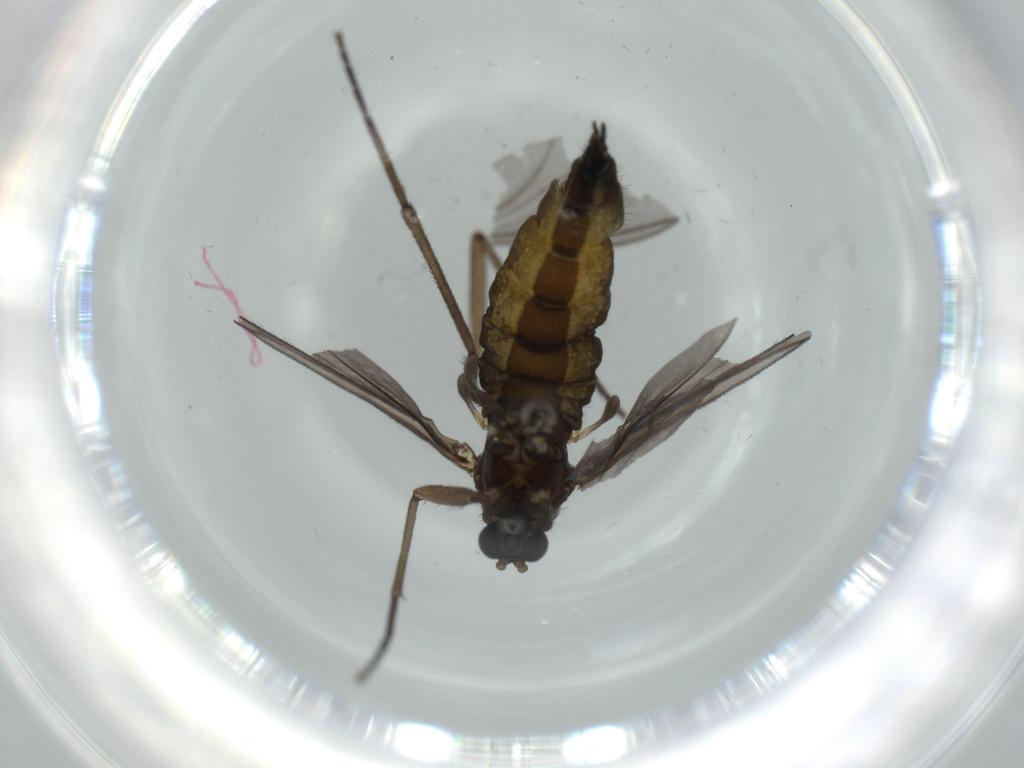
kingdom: Animalia
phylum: Arthropoda
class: Insecta
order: Diptera
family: Sciaridae
